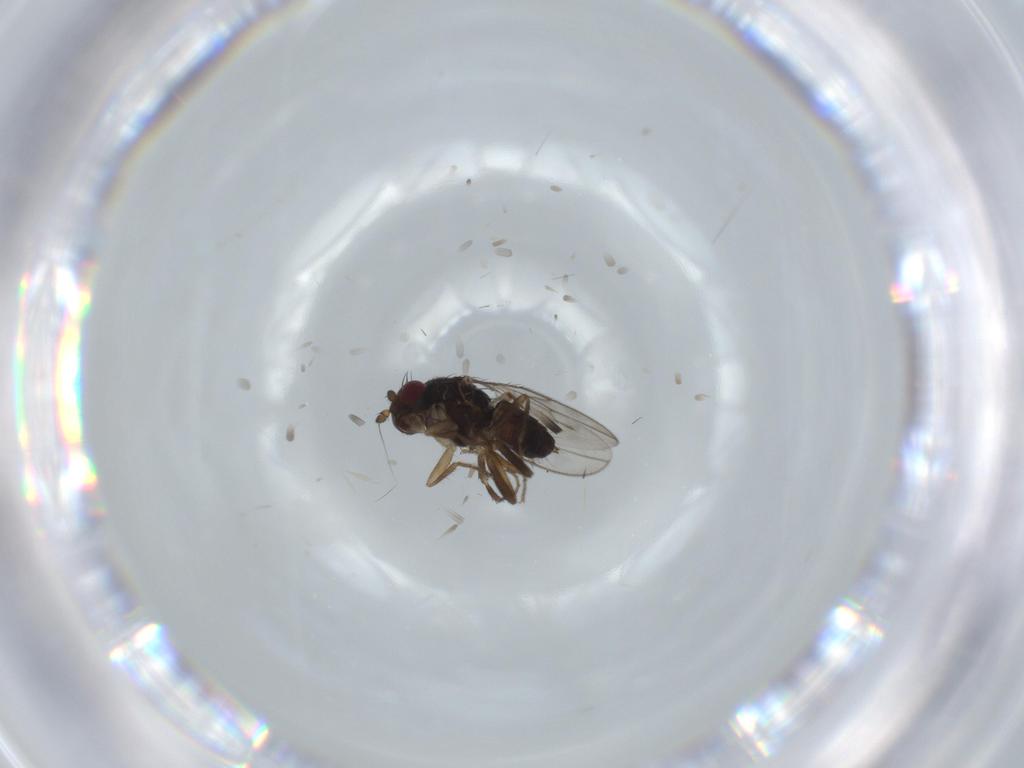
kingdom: Animalia
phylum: Arthropoda
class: Insecta
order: Diptera
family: Sphaeroceridae
